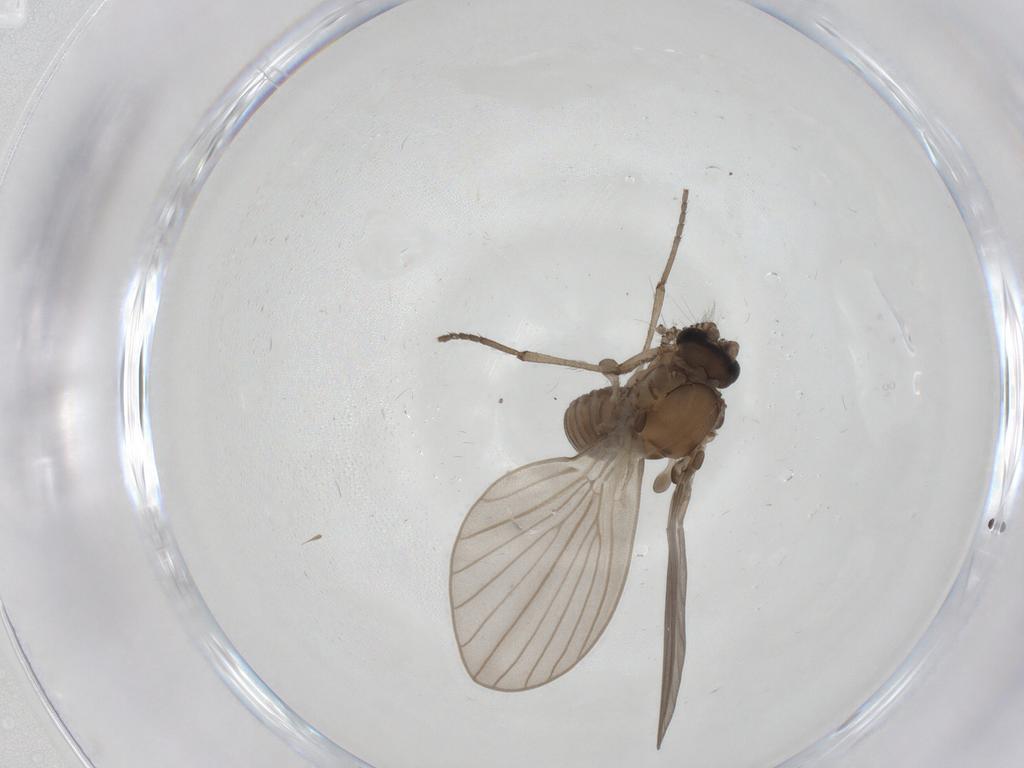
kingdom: Animalia
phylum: Arthropoda
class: Insecta
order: Diptera
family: Psychodidae
